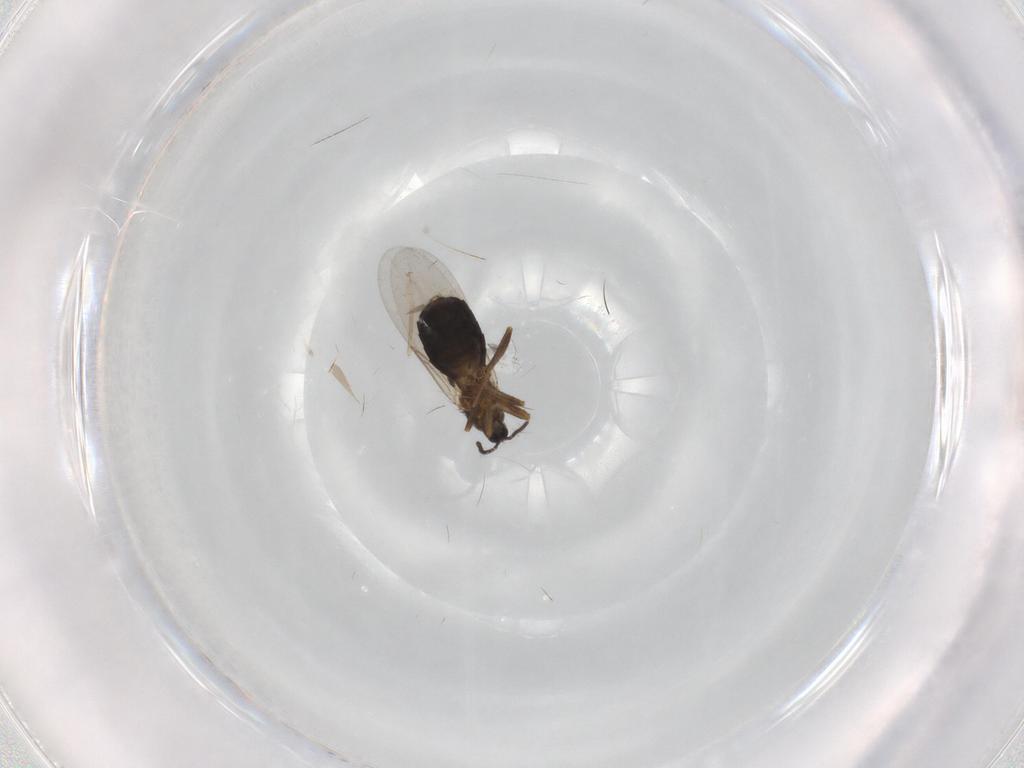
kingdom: Animalia
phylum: Arthropoda
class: Insecta
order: Diptera
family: Scatopsidae
